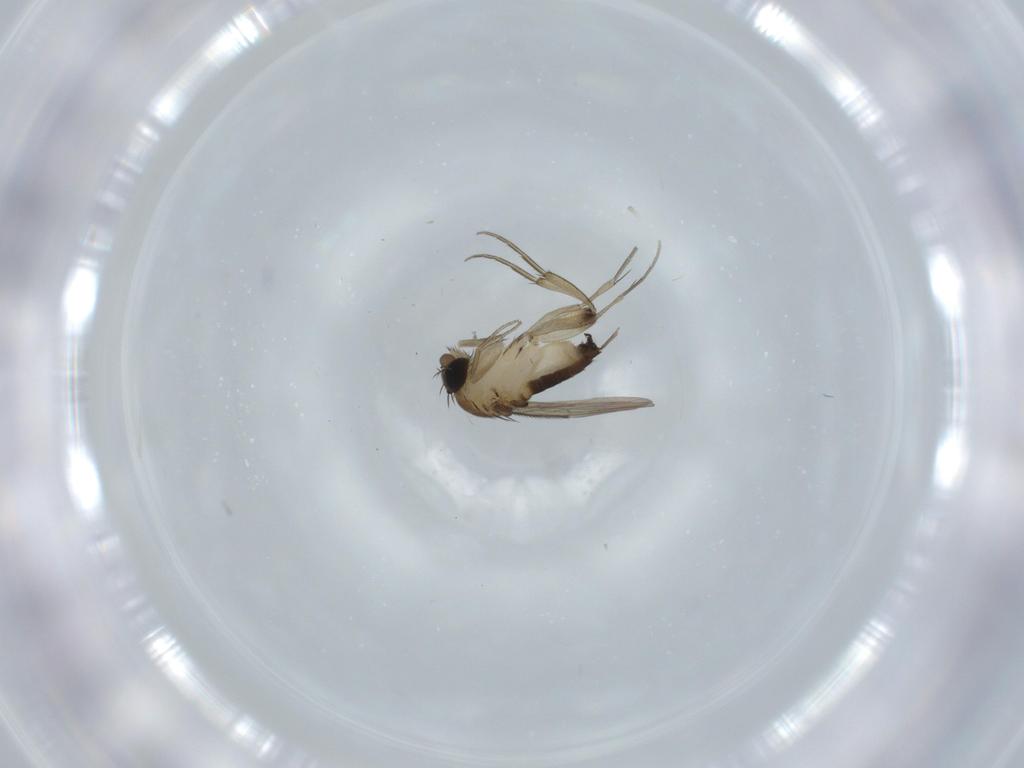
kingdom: Animalia
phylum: Arthropoda
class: Insecta
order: Diptera
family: Phoridae
